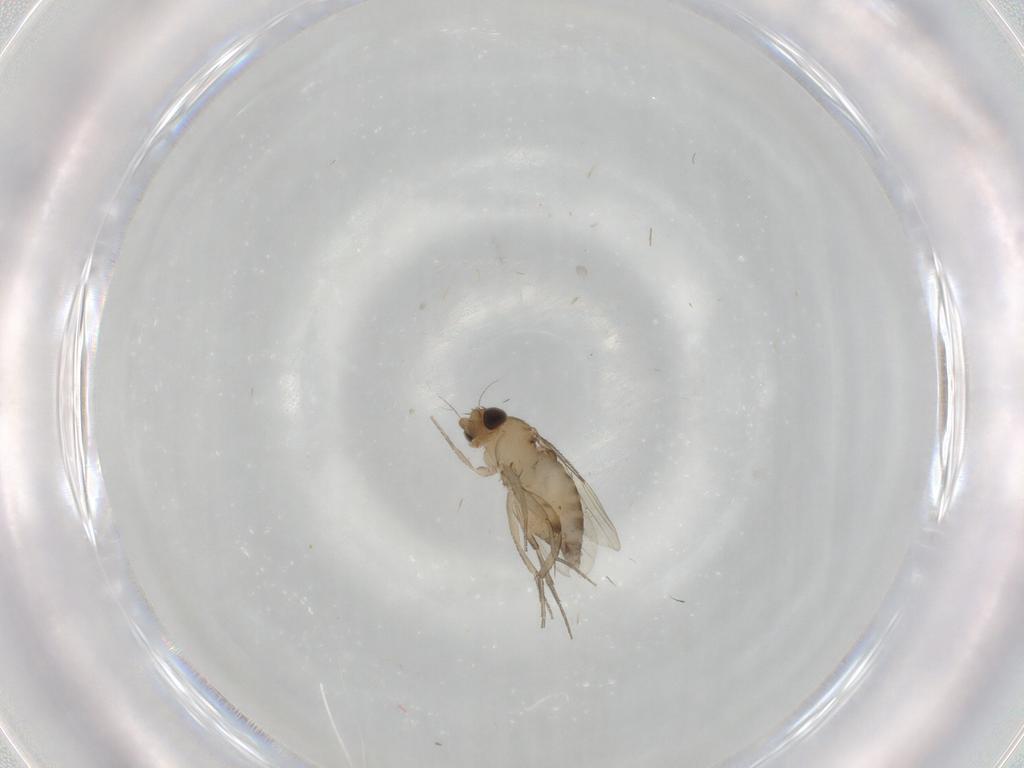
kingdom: Animalia
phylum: Arthropoda
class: Insecta
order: Diptera
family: Phoridae
